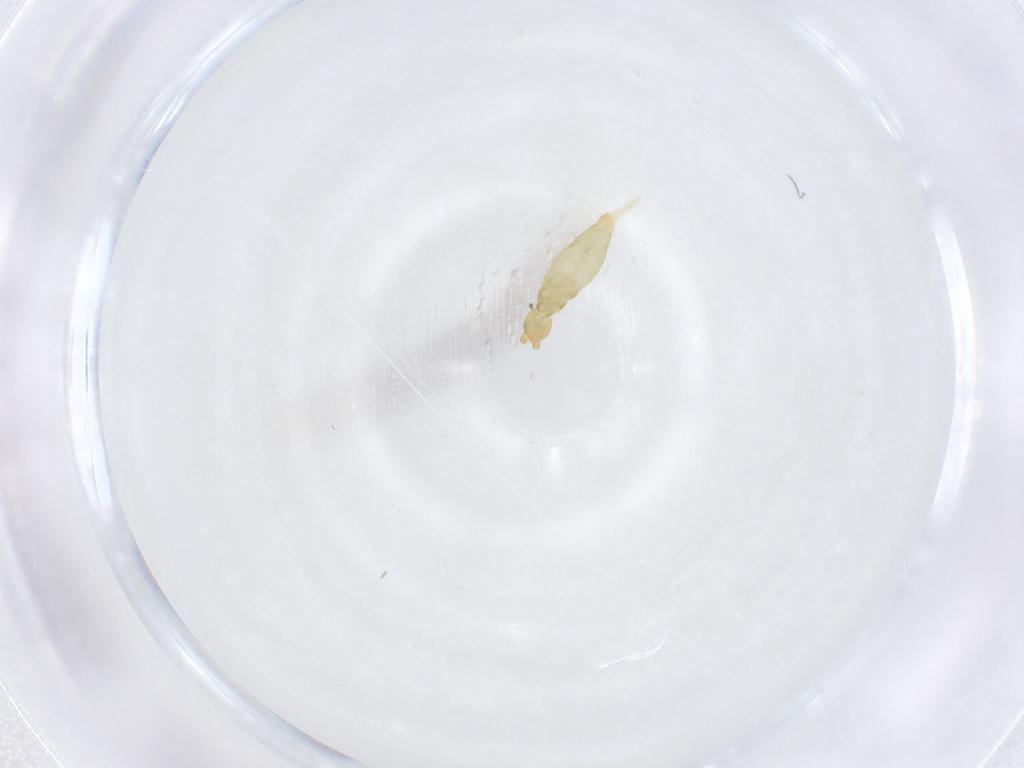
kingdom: Animalia
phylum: Arthropoda
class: Collembola
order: Entomobryomorpha
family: Entomobryidae
